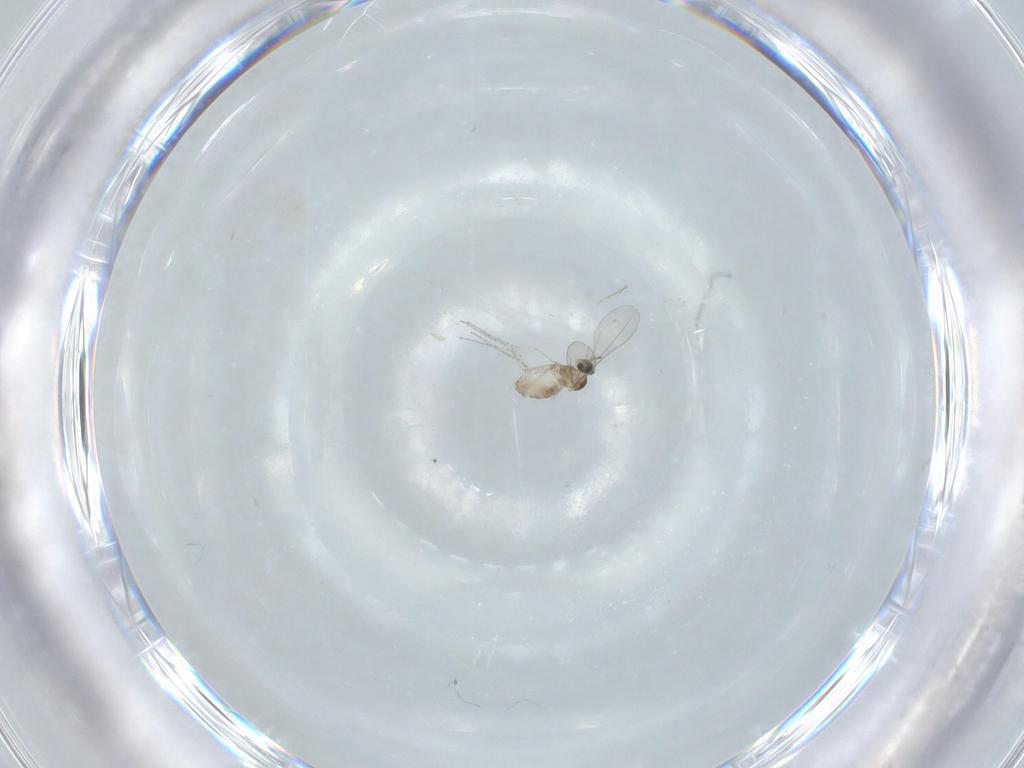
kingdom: Animalia
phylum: Arthropoda
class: Insecta
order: Diptera
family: Cecidomyiidae
